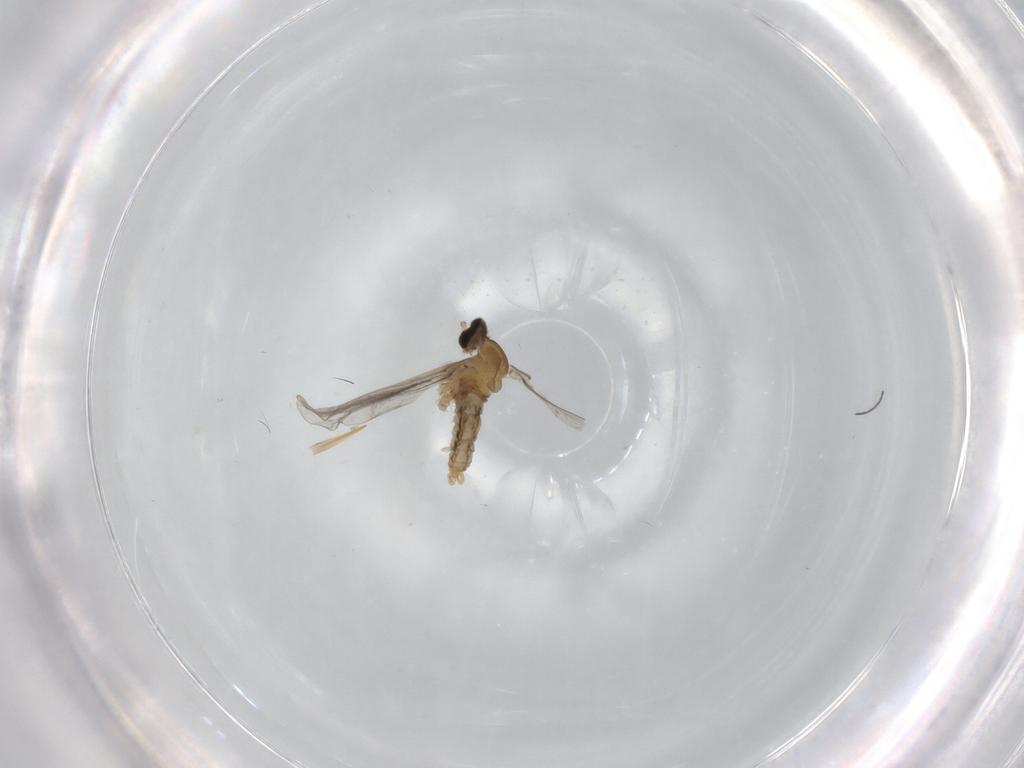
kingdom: Animalia
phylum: Arthropoda
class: Insecta
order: Diptera
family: Cecidomyiidae
